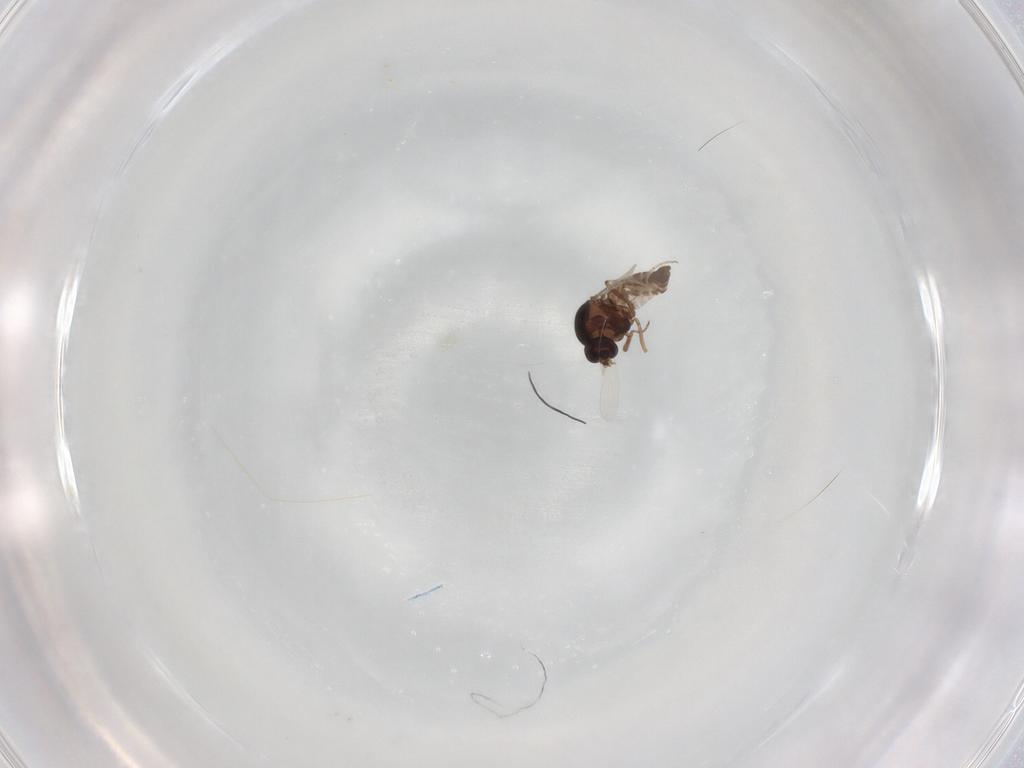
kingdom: Animalia
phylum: Arthropoda
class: Insecta
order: Diptera
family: Ceratopogonidae
